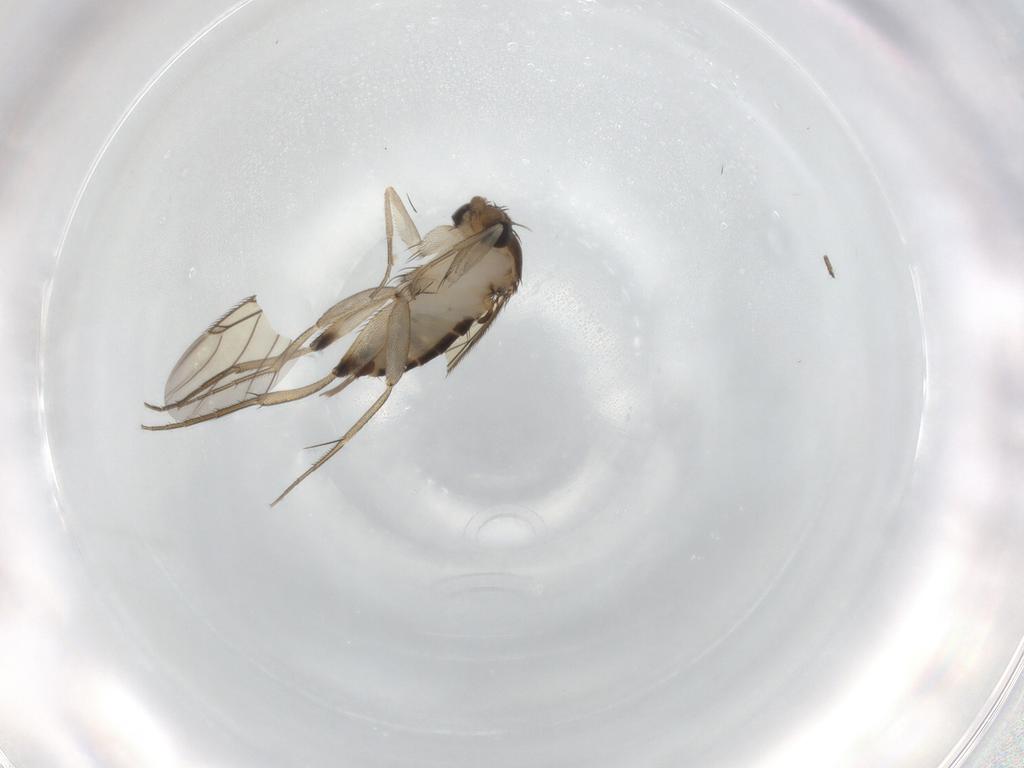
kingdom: Animalia
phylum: Arthropoda
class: Insecta
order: Diptera
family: Phoridae
